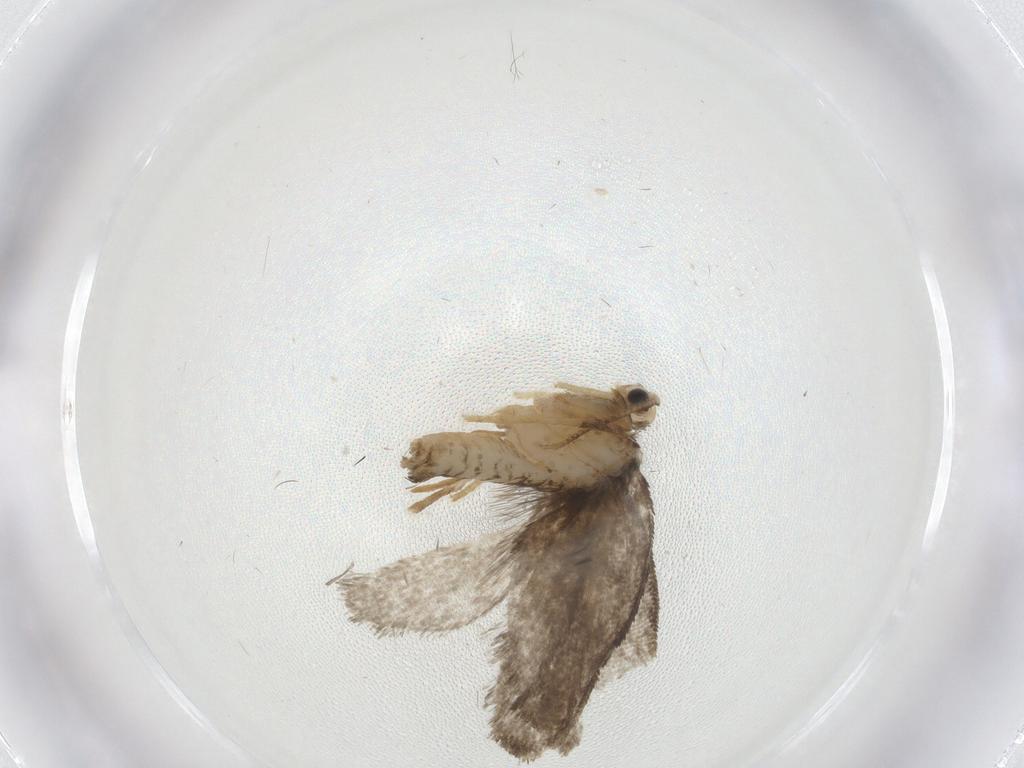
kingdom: Animalia
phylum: Arthropoda
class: Insecta
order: Lepidoptera
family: Psychidae
